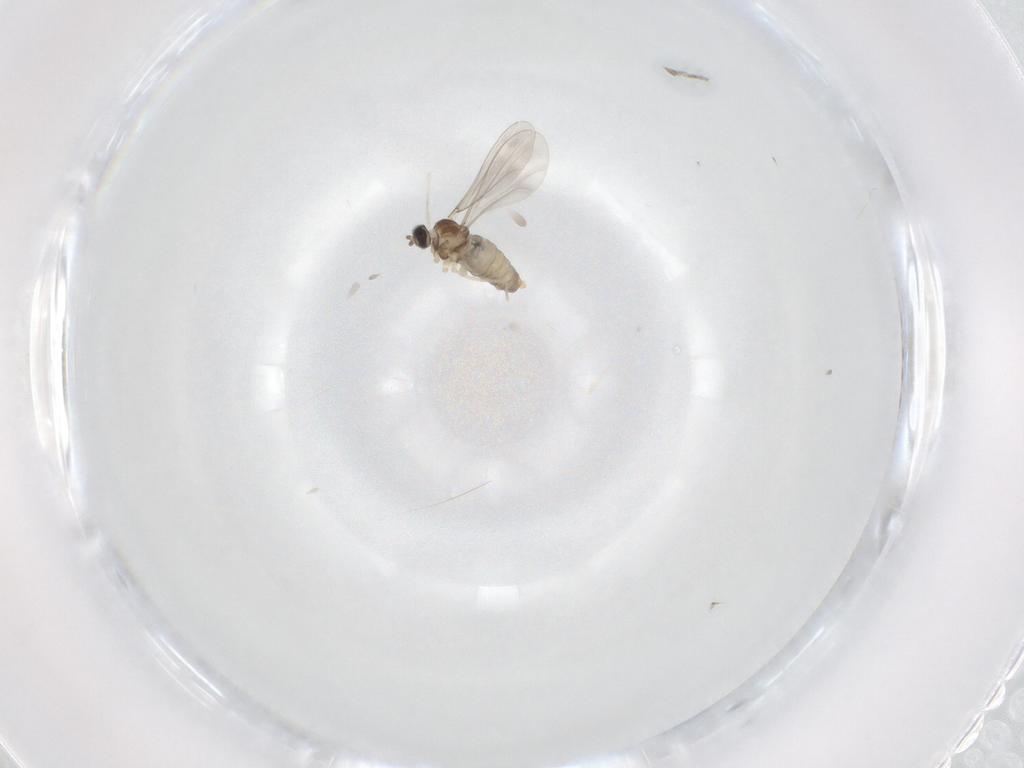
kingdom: Animalia
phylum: Arthropoda
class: Insecta
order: Diptera
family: Cecidomyiidae
